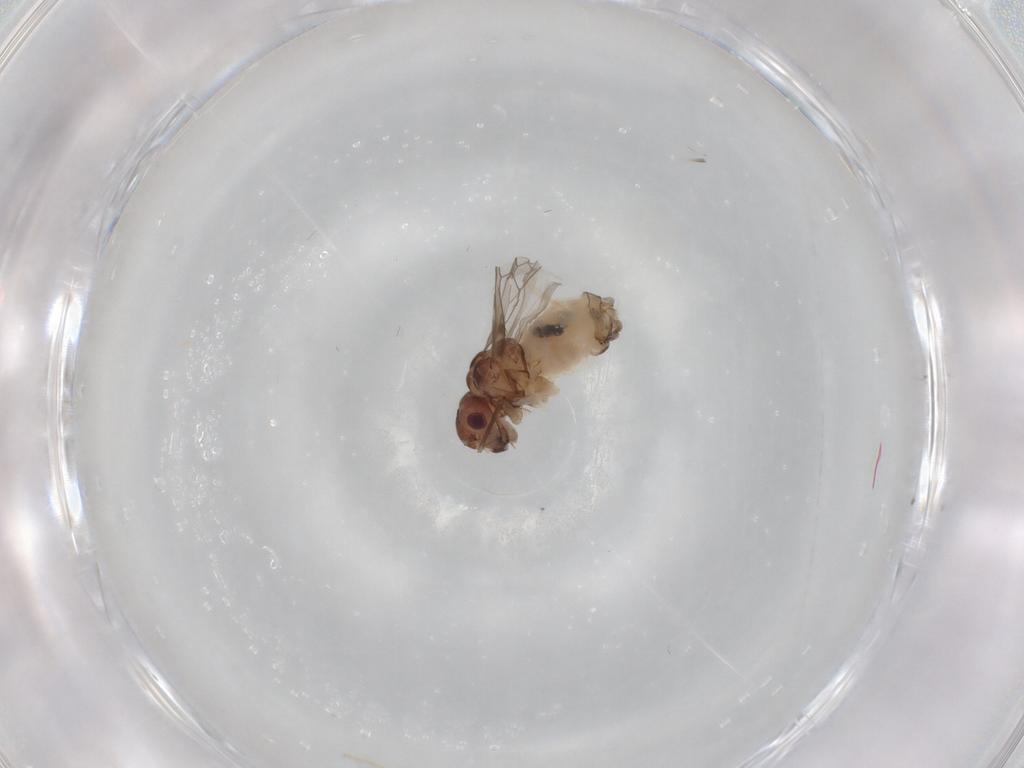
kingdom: Animalia
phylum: Arthropoda
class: Insecta
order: Psocodea
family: Peripsocidae
